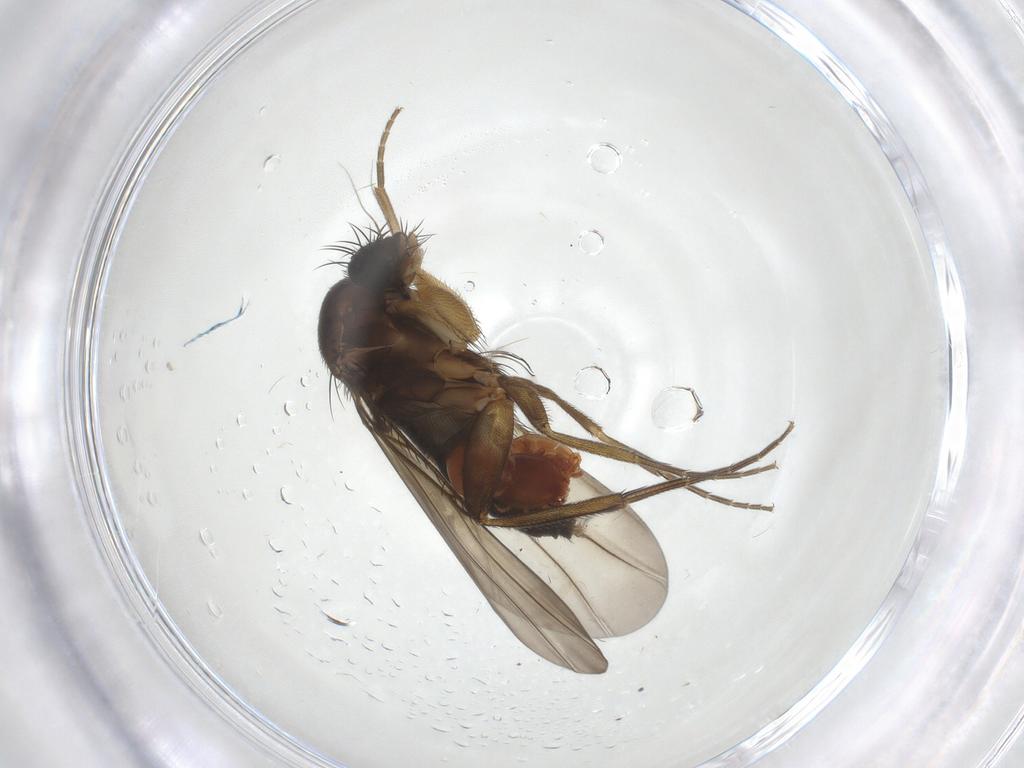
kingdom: Animalia
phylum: Arthropoda
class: Insecta
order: Diptera
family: Phoridae
